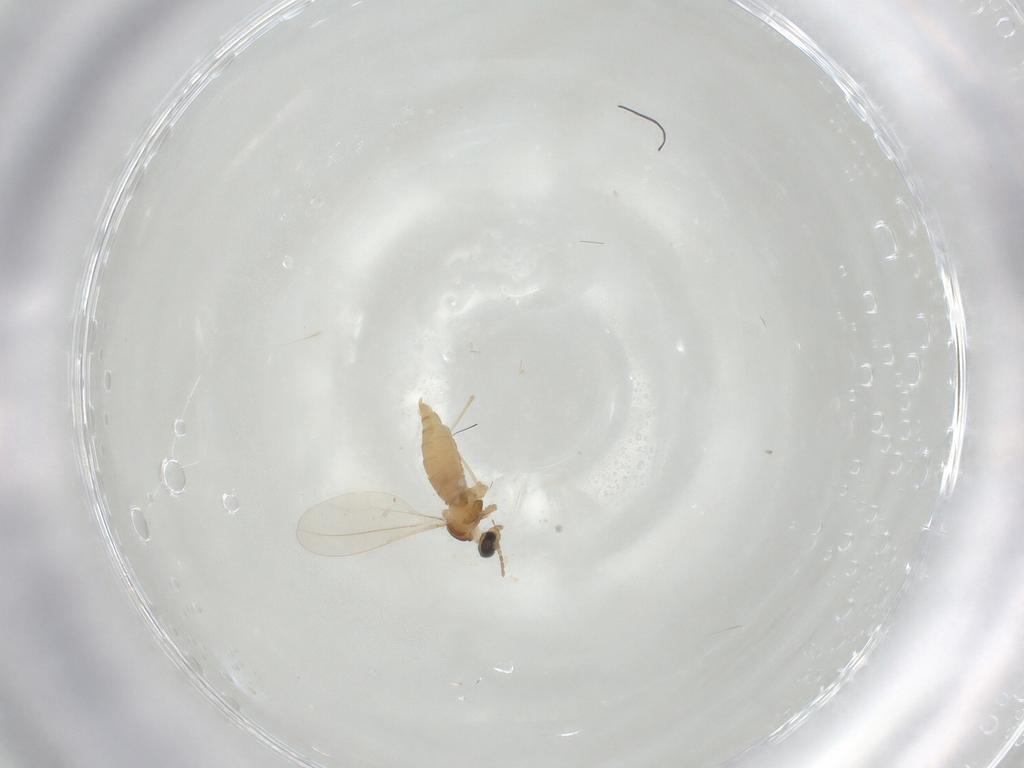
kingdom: Animalia
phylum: Arthropoda
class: Insecta
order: Diptera
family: Cecidomyiidae
